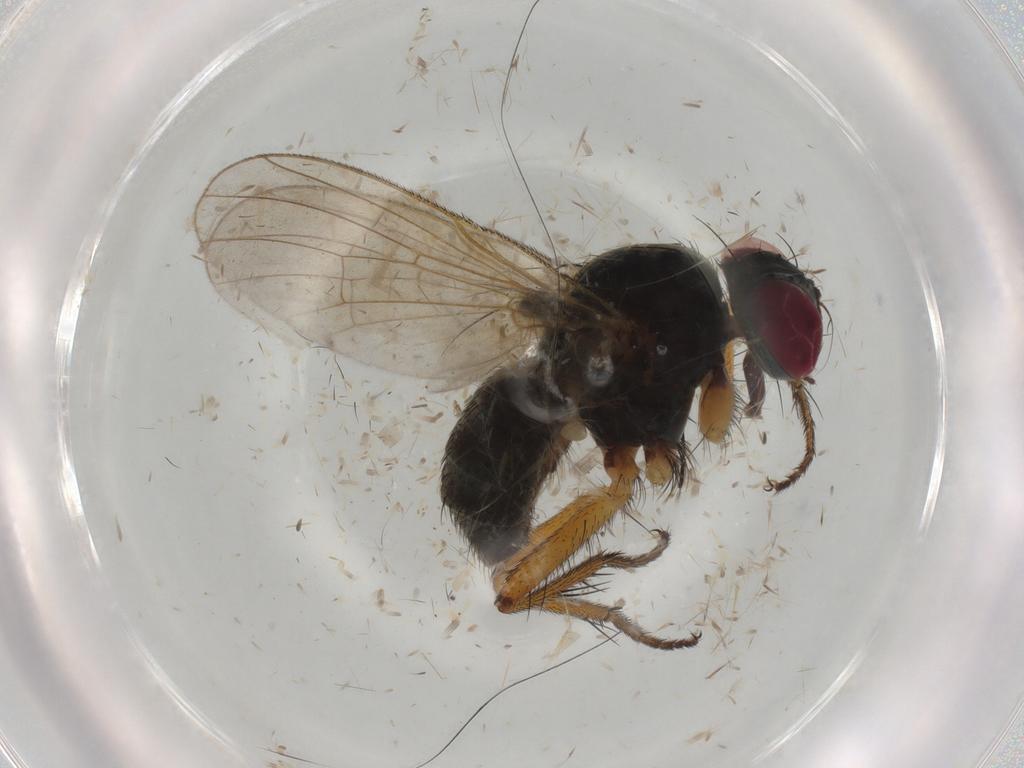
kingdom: Animalia
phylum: Arthropoda
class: Insecta
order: Diptera
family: Muscidae
